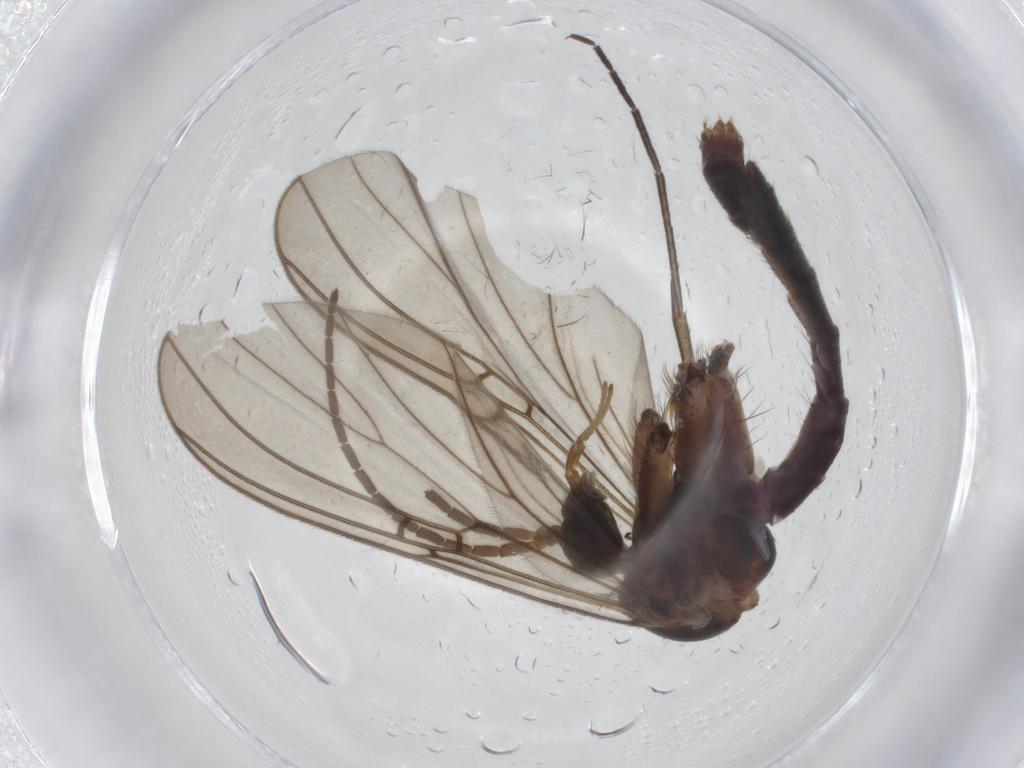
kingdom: Animalia
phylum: Arthropoda
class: Insecta
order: Diptera
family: Mycetophilidae
